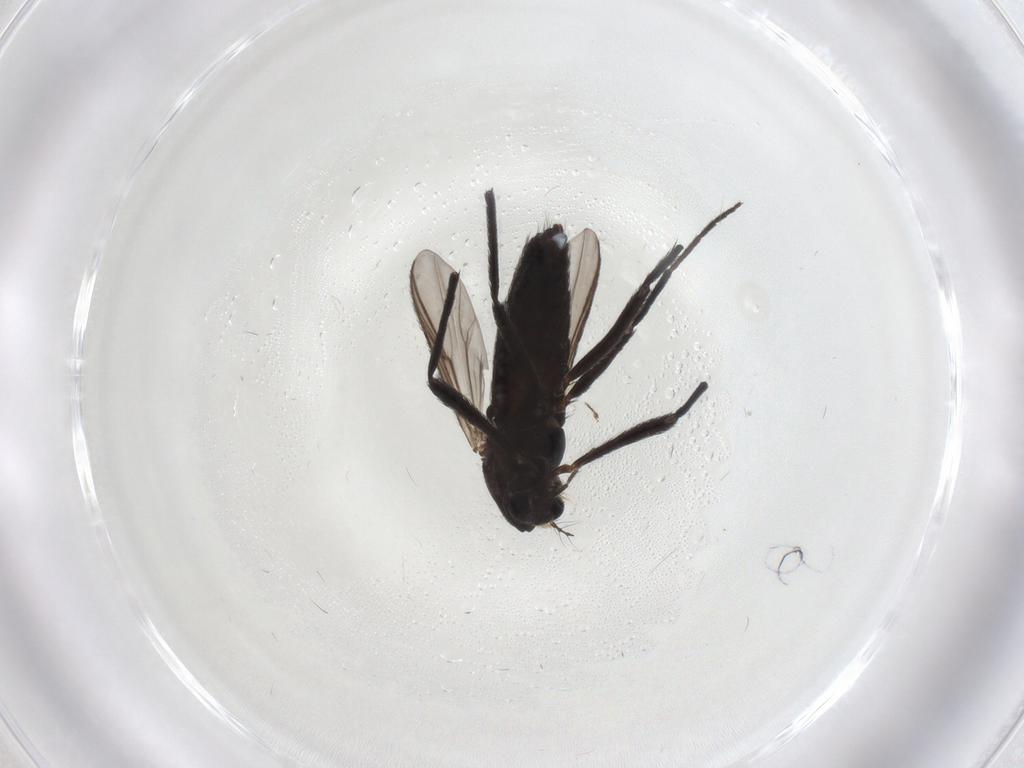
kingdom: Animalia
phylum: Arthropoda
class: Insecta
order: Diptera
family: Chironomidae
